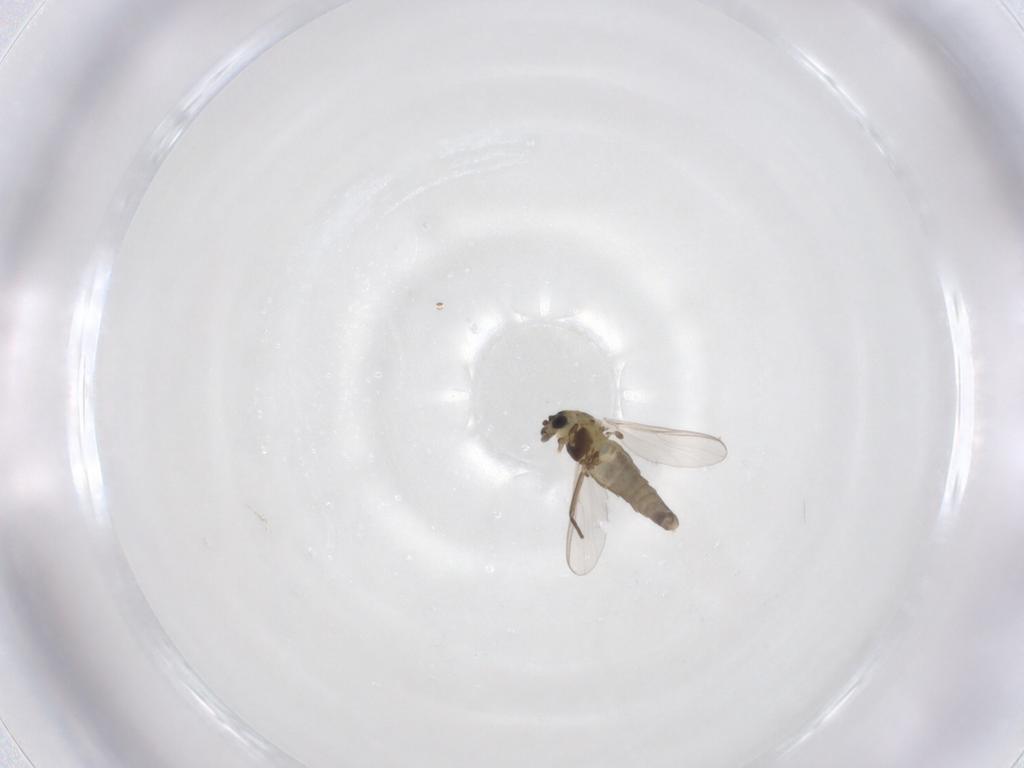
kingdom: Animalia
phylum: Arthropoda
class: Insecta
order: Diptera
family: Chironomidae
